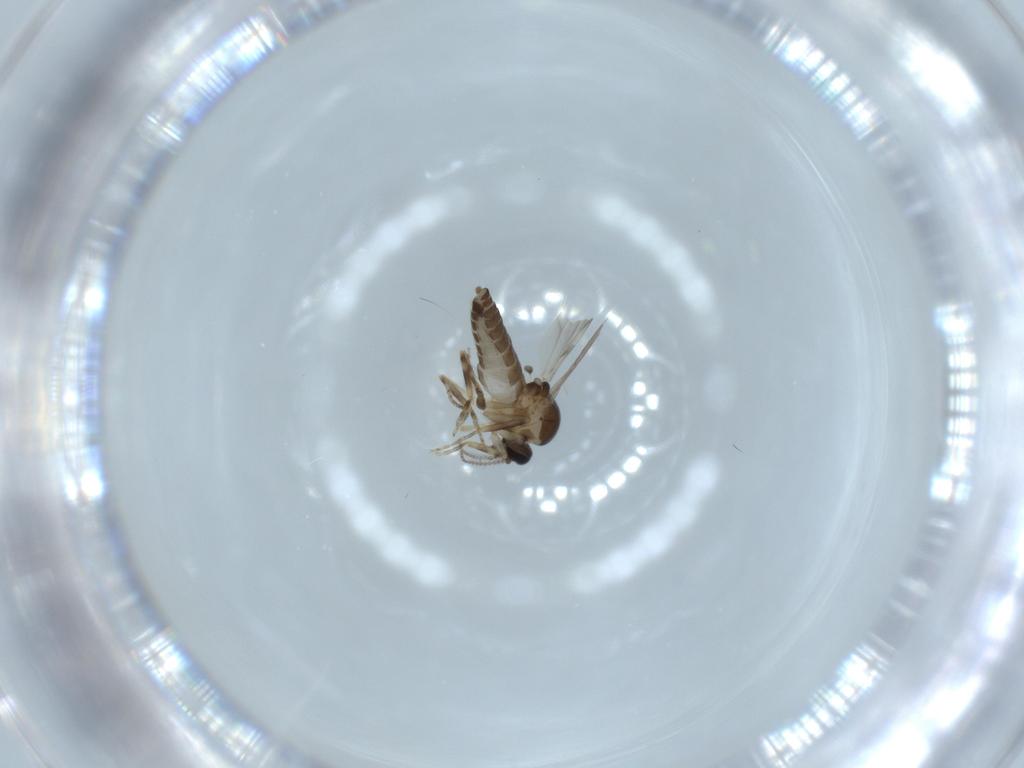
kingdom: Animalia
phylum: Arthropoda
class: Insecta
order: Diptera
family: Ceratopogonidae
